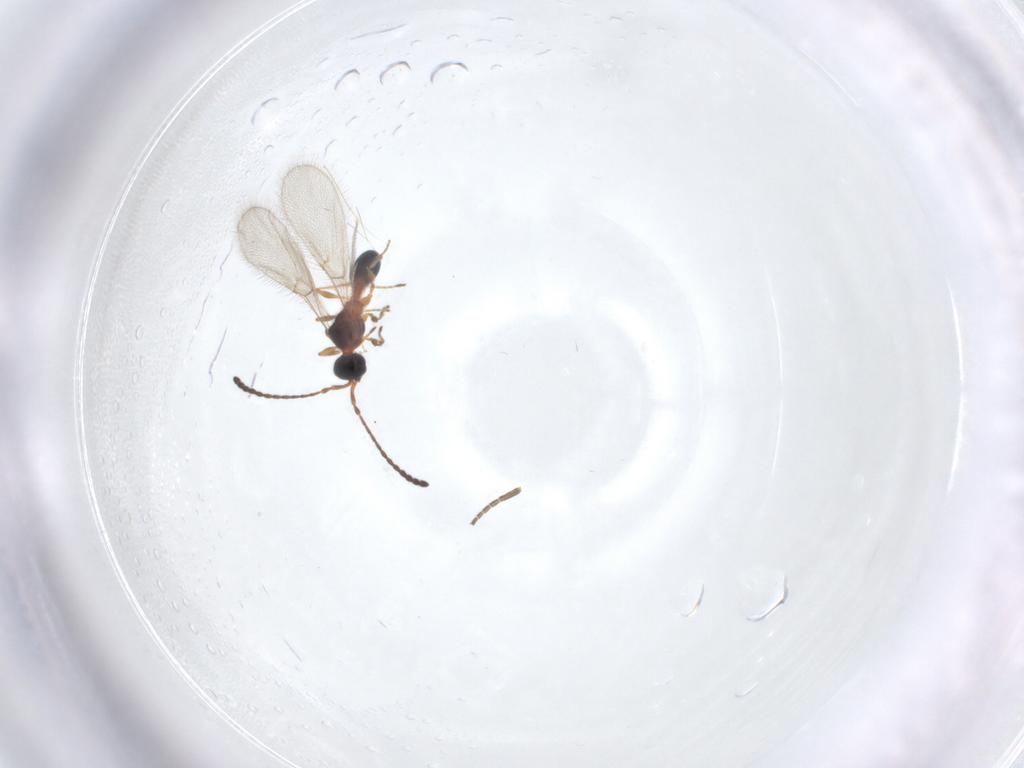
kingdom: Animalia
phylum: Arthropoda
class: Insecta
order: Hymenoptera
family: Diapriidae
